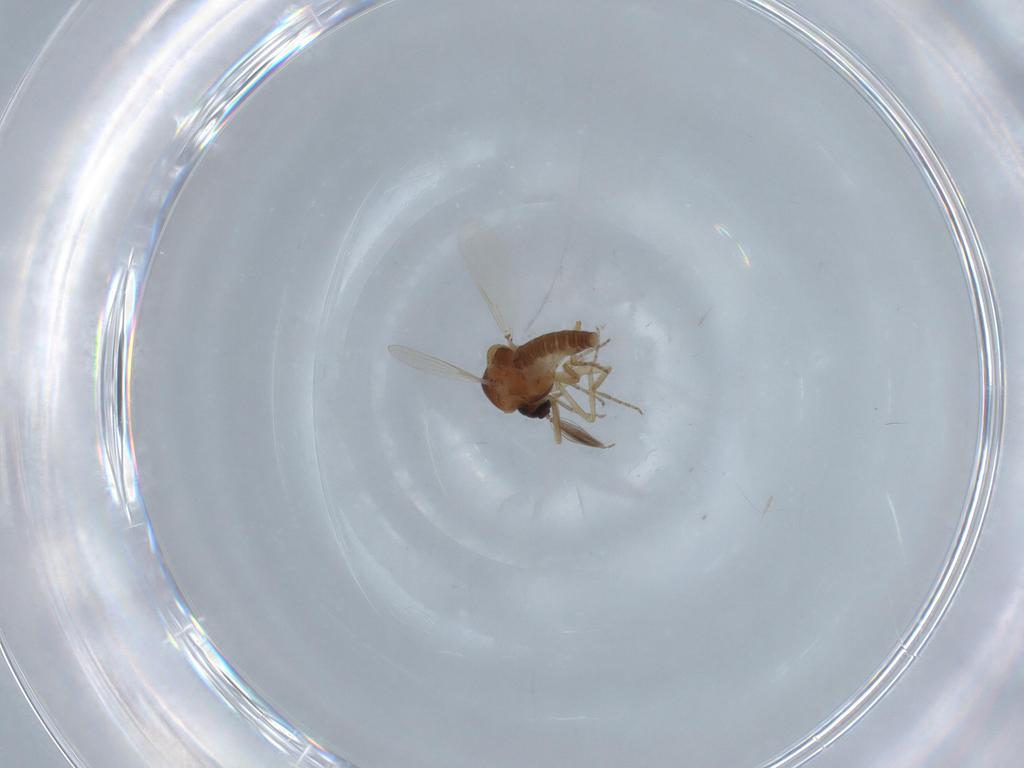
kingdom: Animalia
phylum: Arthropoda
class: Insecta
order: Diptera
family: Ceratopogonidae
